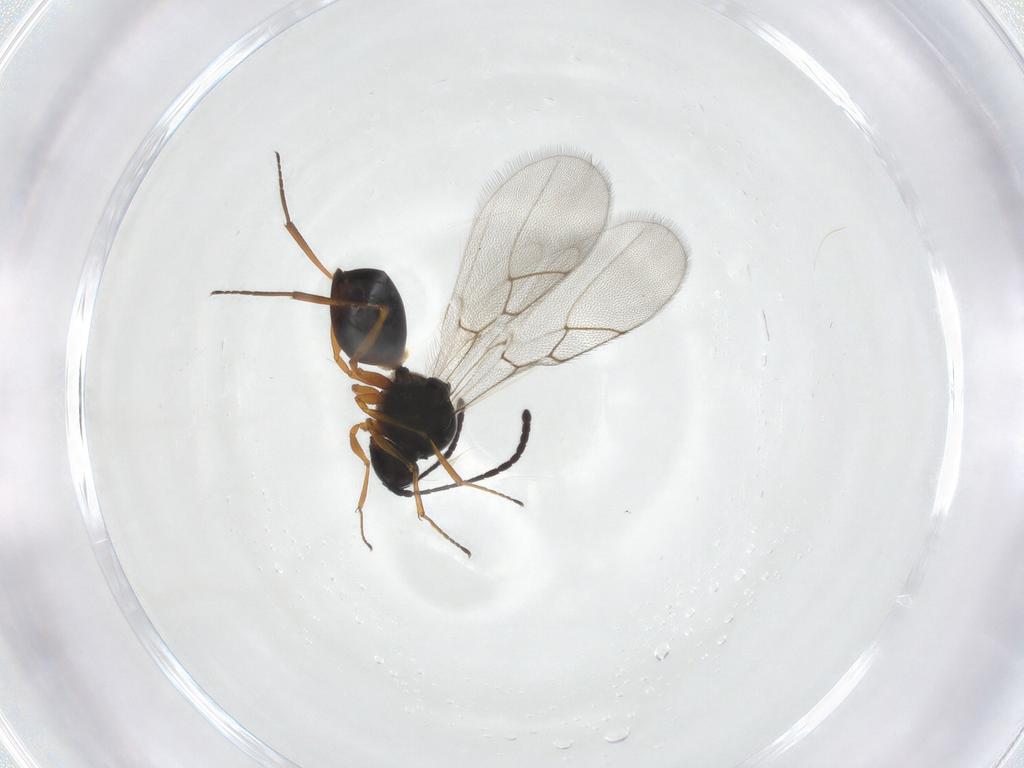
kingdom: Animalia
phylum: Arthropoda
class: Insecta
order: Hymenoptera
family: Figitidae
